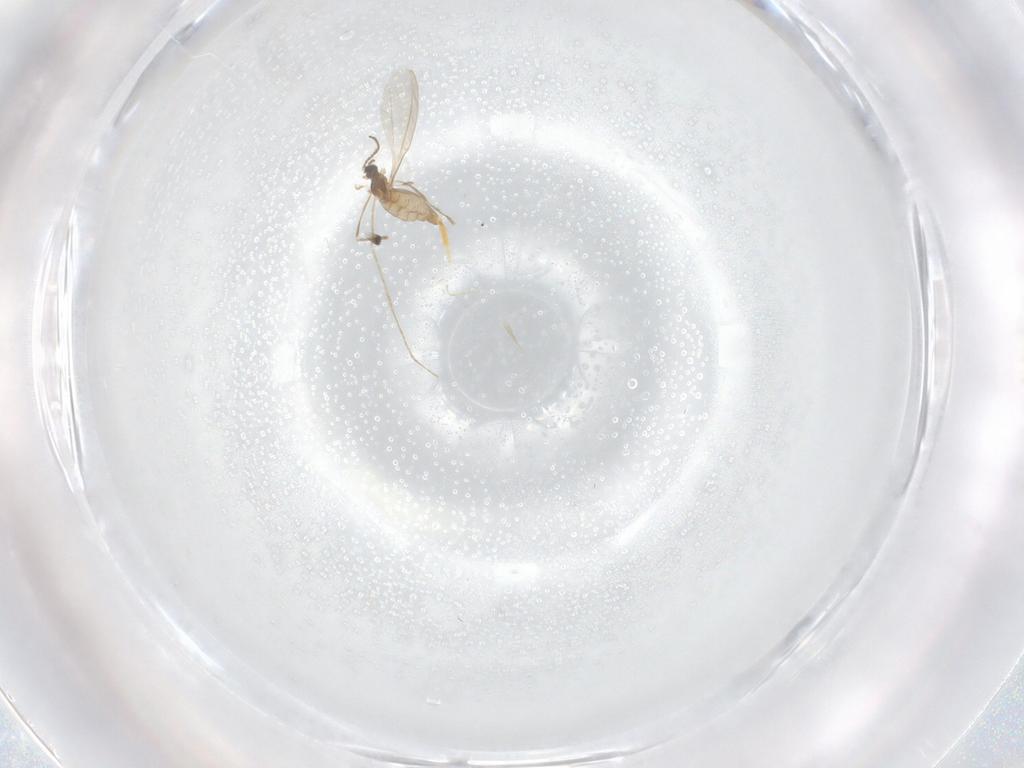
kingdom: Animalia
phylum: Arthropoda
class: Insecta
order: Diptera
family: Cecidomyiidae
